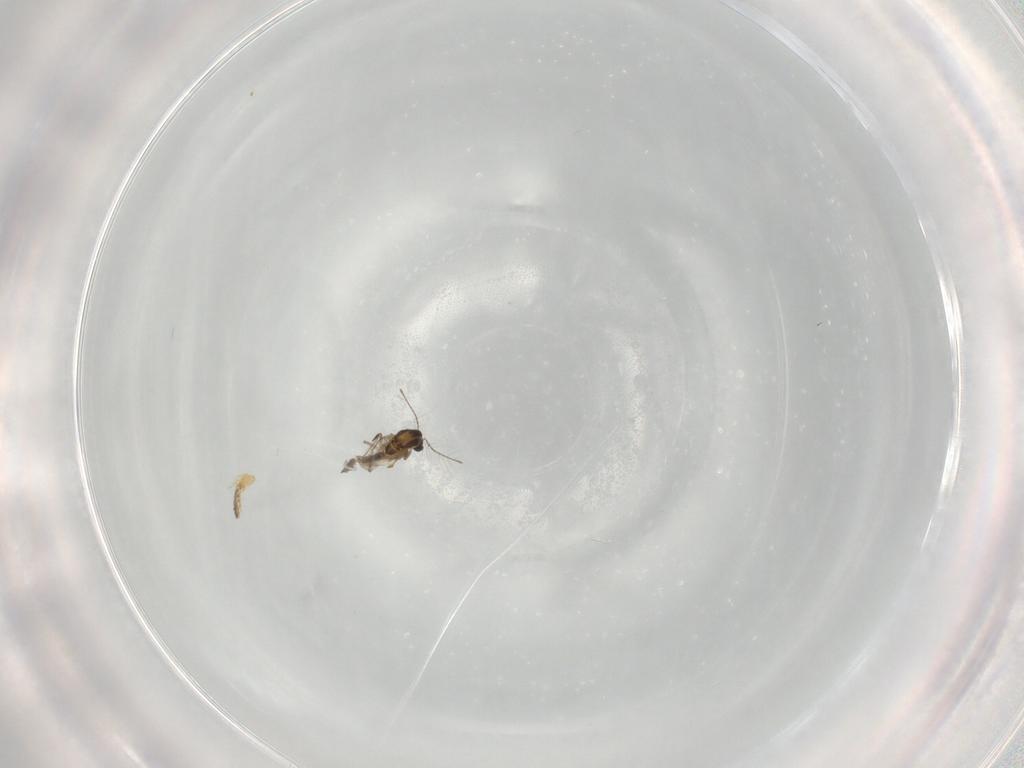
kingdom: Animalia
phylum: Arthropoda
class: Insecta
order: Diptera
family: Chironomidae
